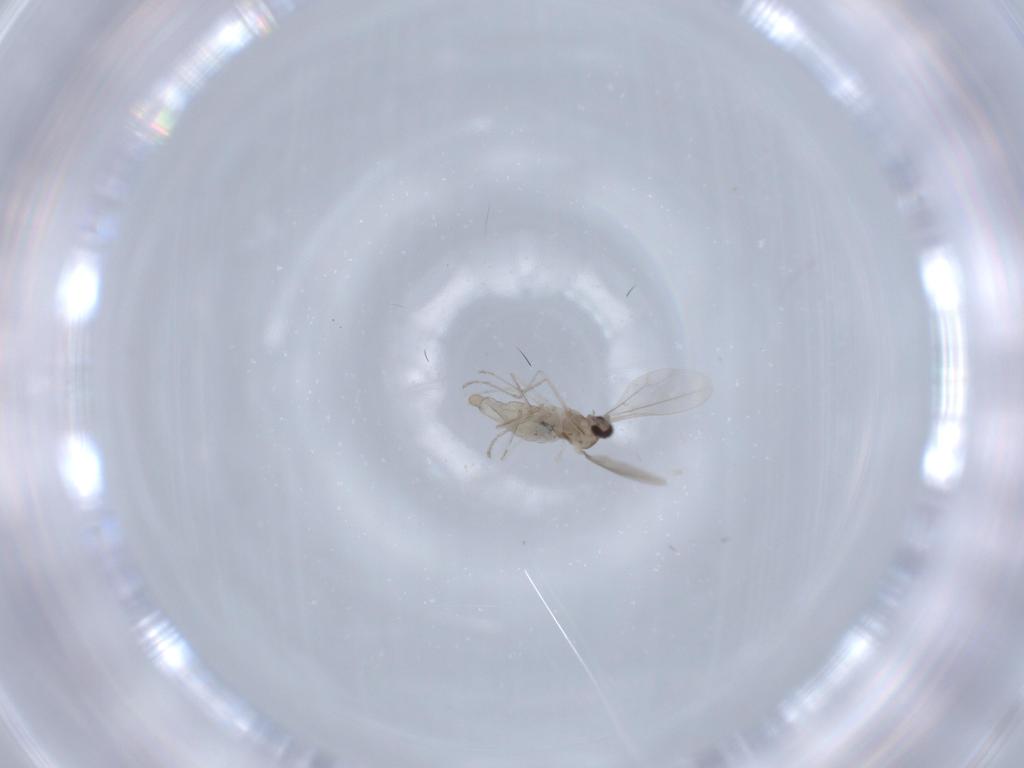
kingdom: Animalia
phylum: Arthropoda
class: Insecta
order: Diptera
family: Cecidomyiidae
